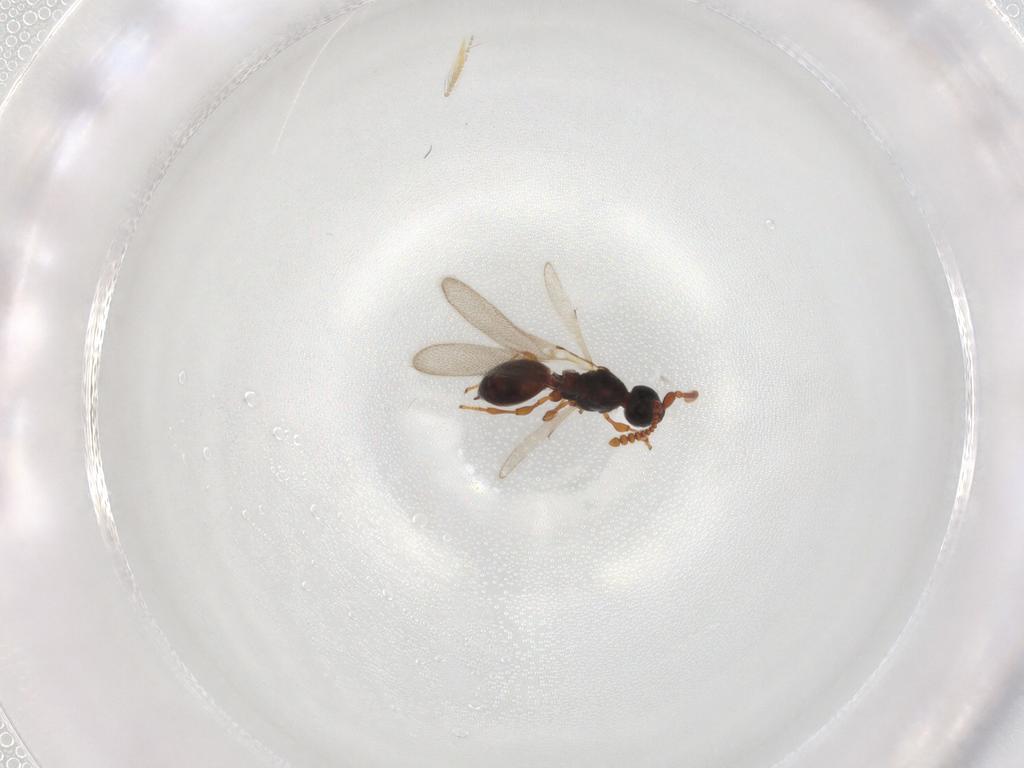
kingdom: Animalia
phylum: Arthropoda
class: Insecta
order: Hymenoptera
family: Diapriidae
